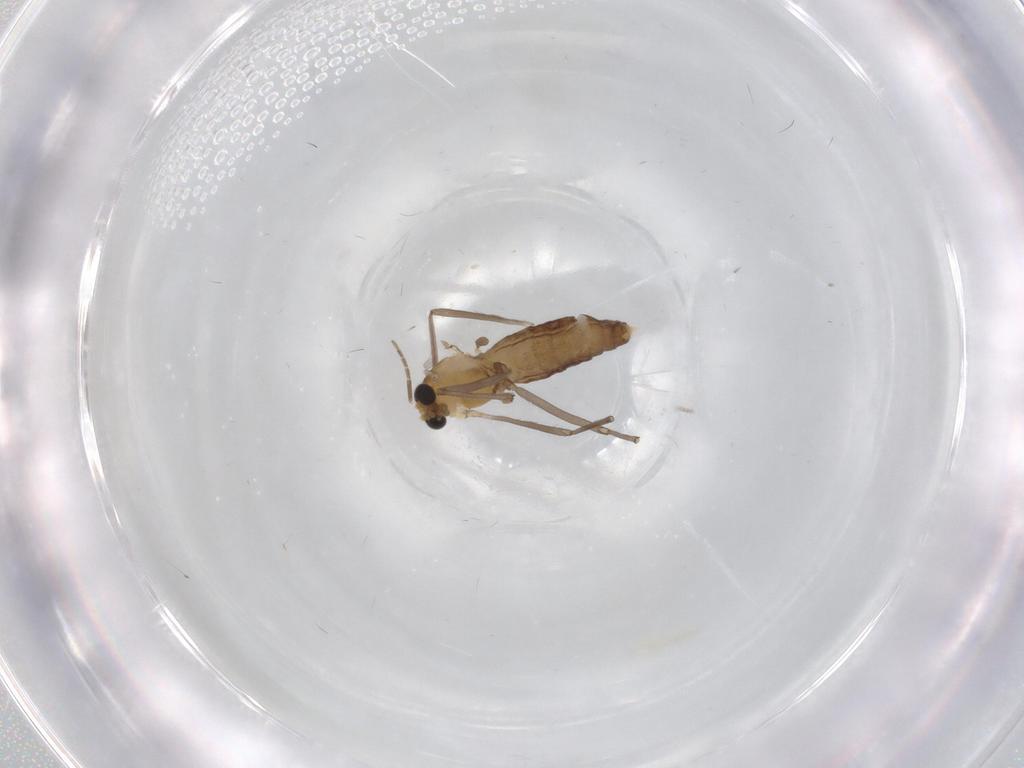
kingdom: Animalia
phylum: Arthropoda
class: Insecta
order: Diptera
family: Chironomidae
